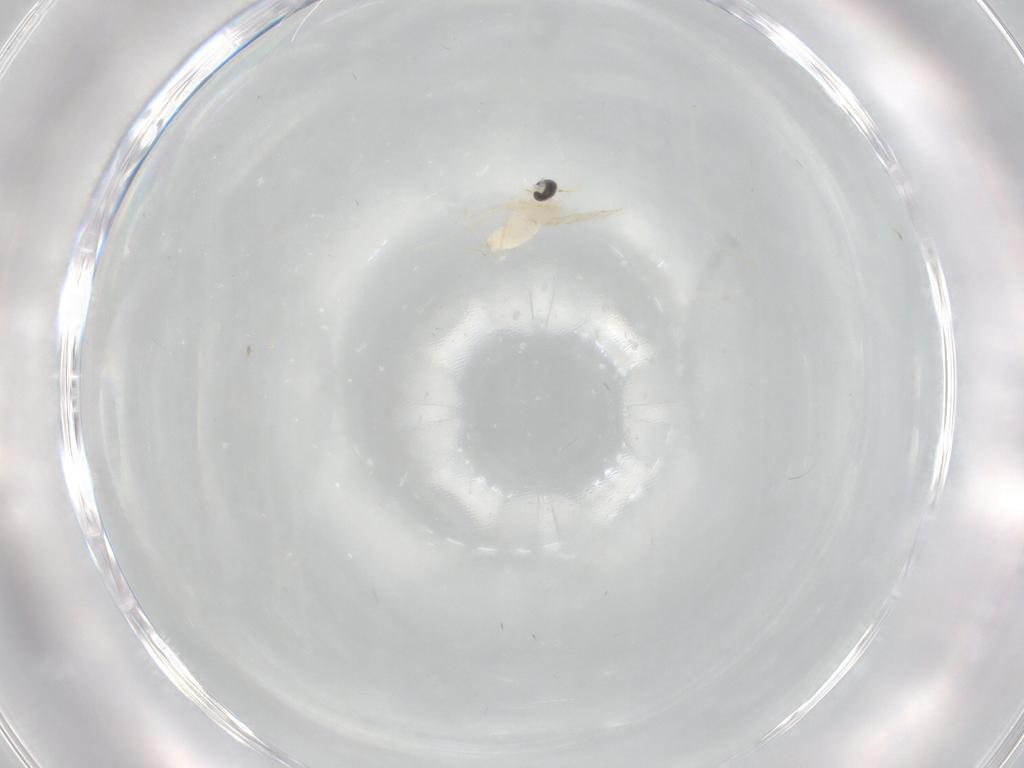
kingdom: Animalia
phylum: Arthropoda
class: Insecta
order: Diptera
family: Cecidomyiidae
